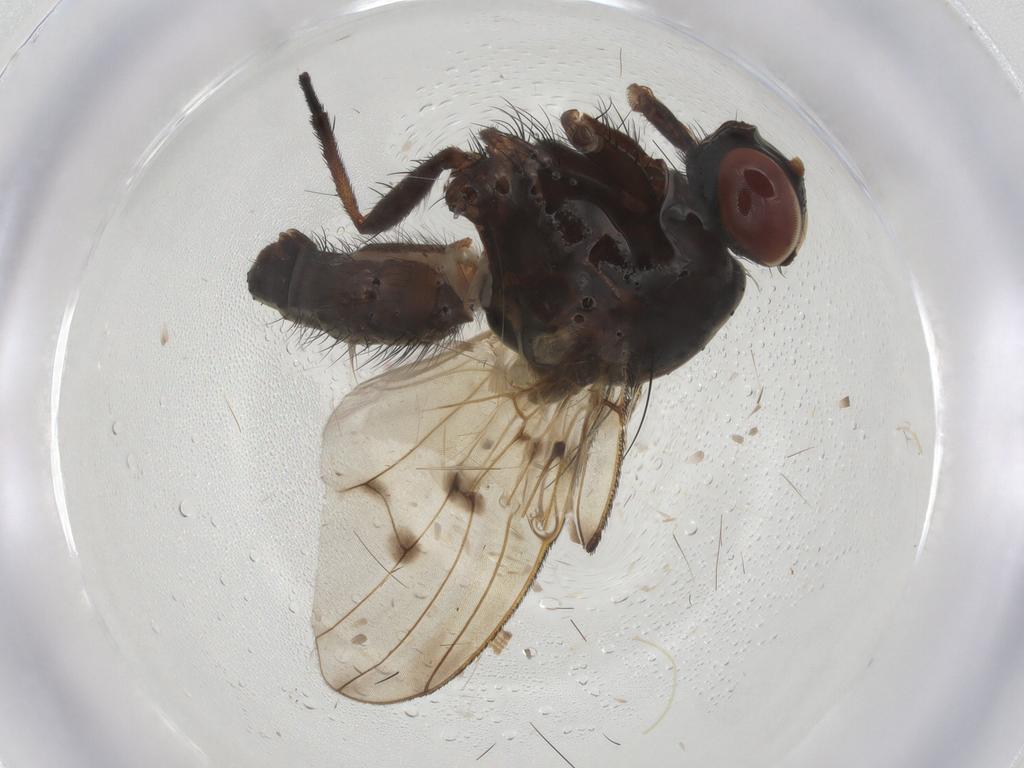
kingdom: Animalia
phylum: Arthropoda
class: Insecta
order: Diptera
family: Anthomyiidae
